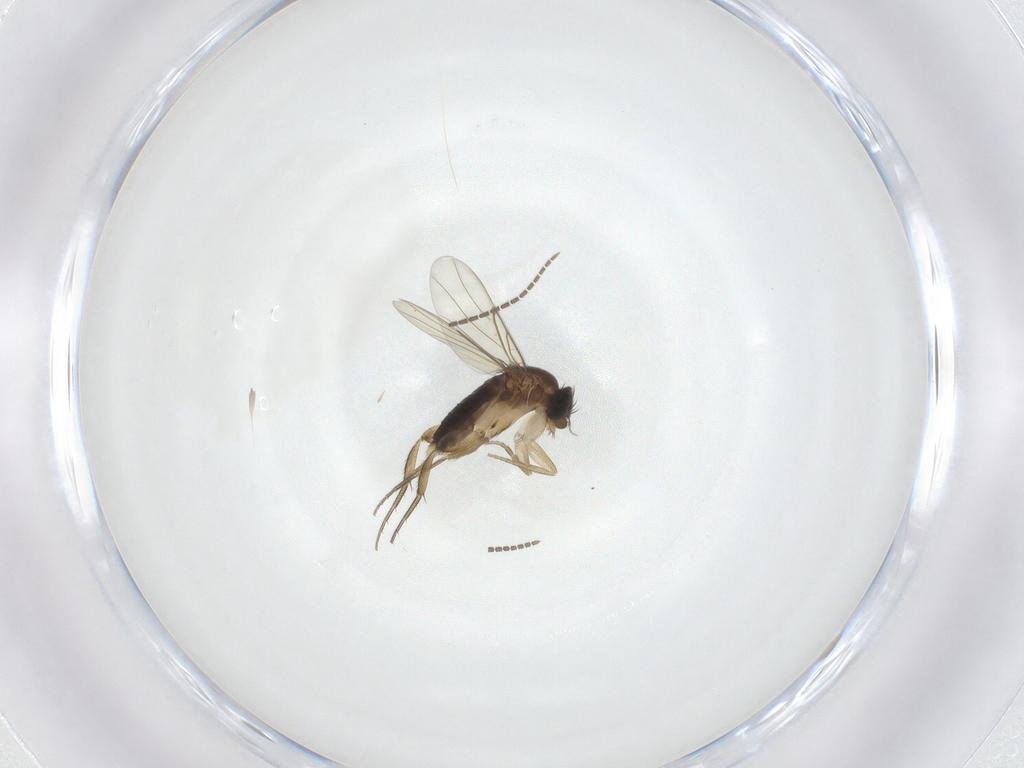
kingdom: Animalia
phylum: Arthropoda
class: Insecta
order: Diptera
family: Phoridae
